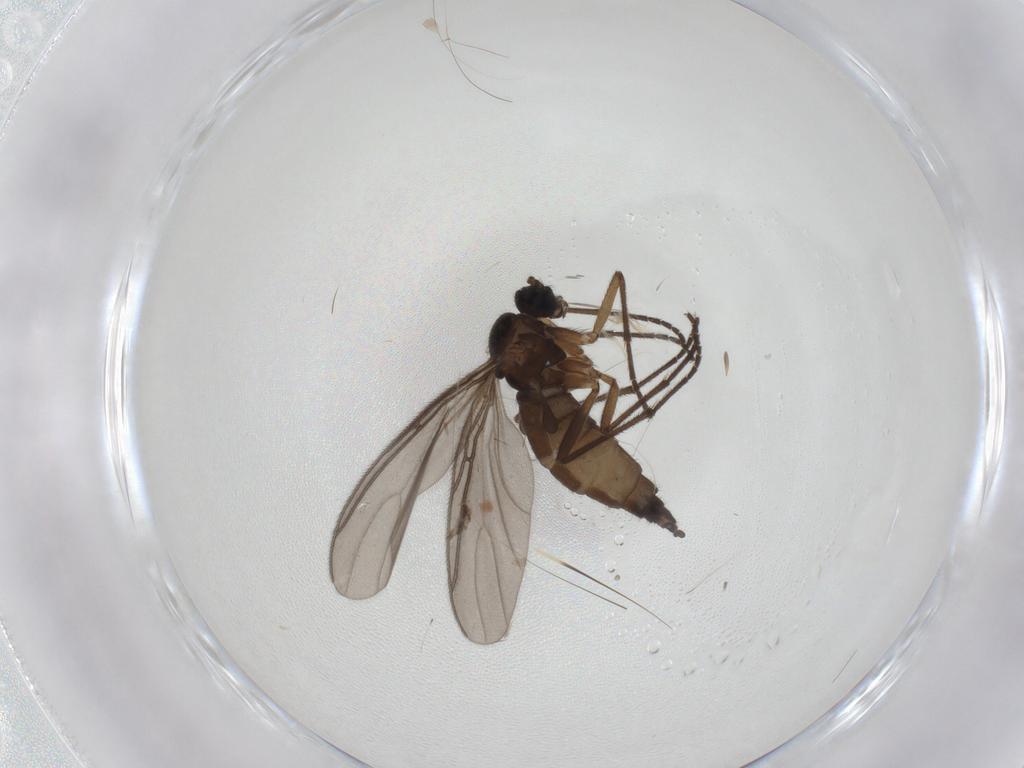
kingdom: Animalia
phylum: Arthropoda
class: Insecta
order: Diptera
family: Sciaridae
